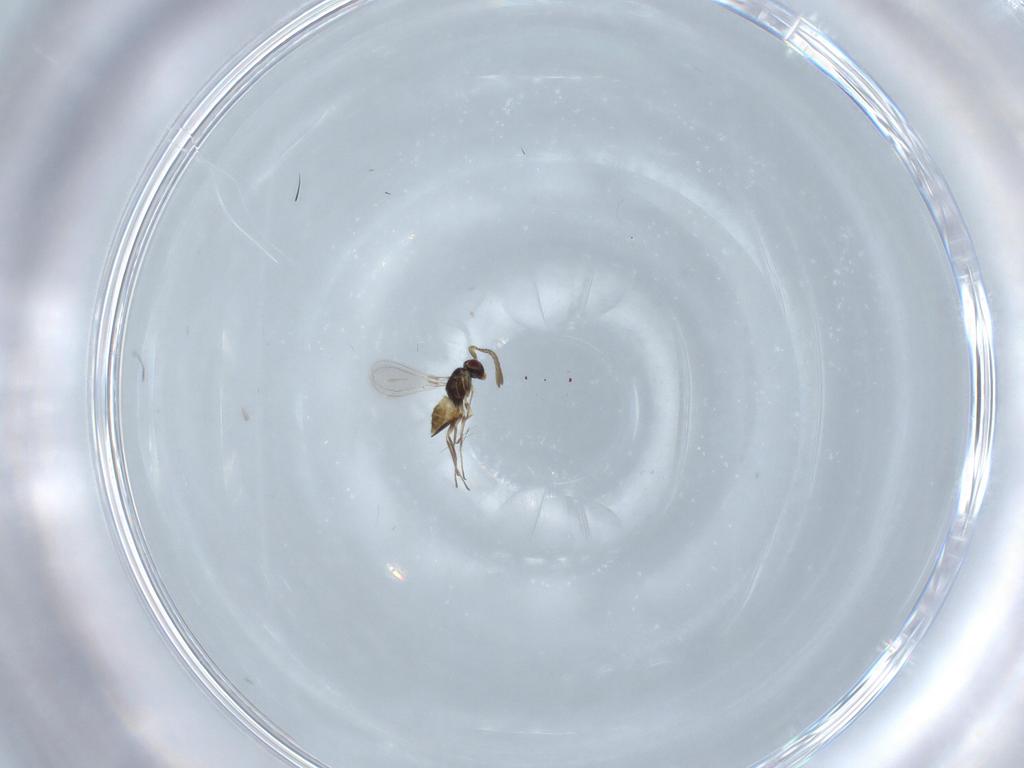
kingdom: Animalia
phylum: Arthropoda
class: Insecta
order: Hymenoptera
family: Mymaridae
